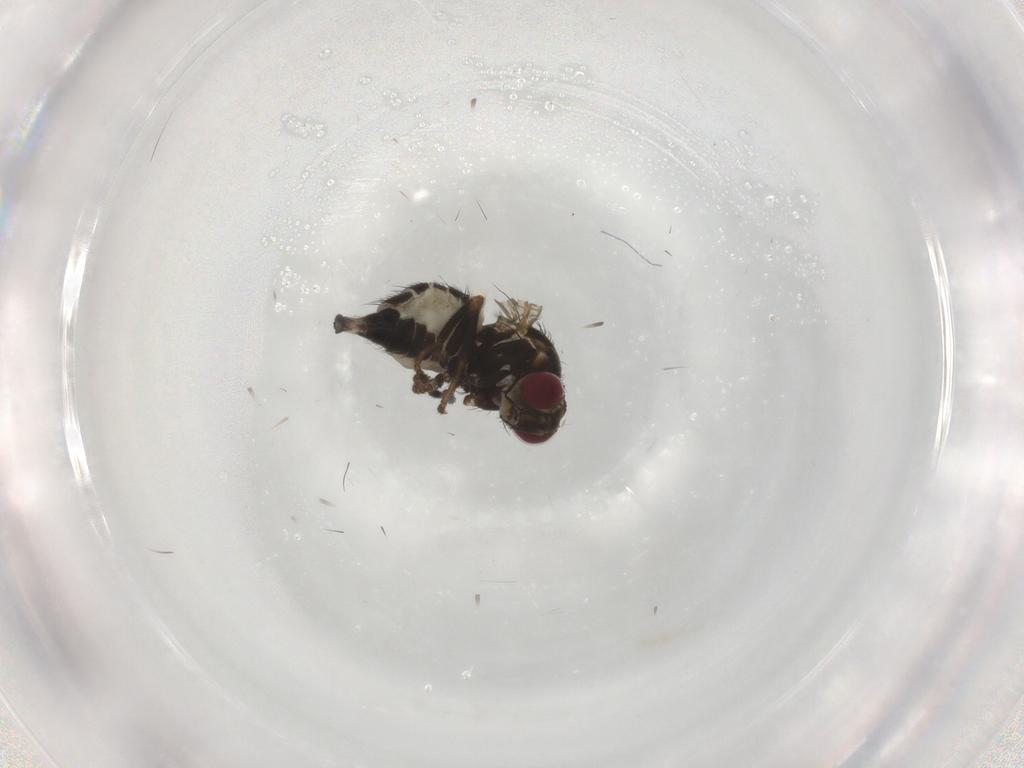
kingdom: Animalia
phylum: Arthropoda
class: Insecta
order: Diptera
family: Agromyzidae
